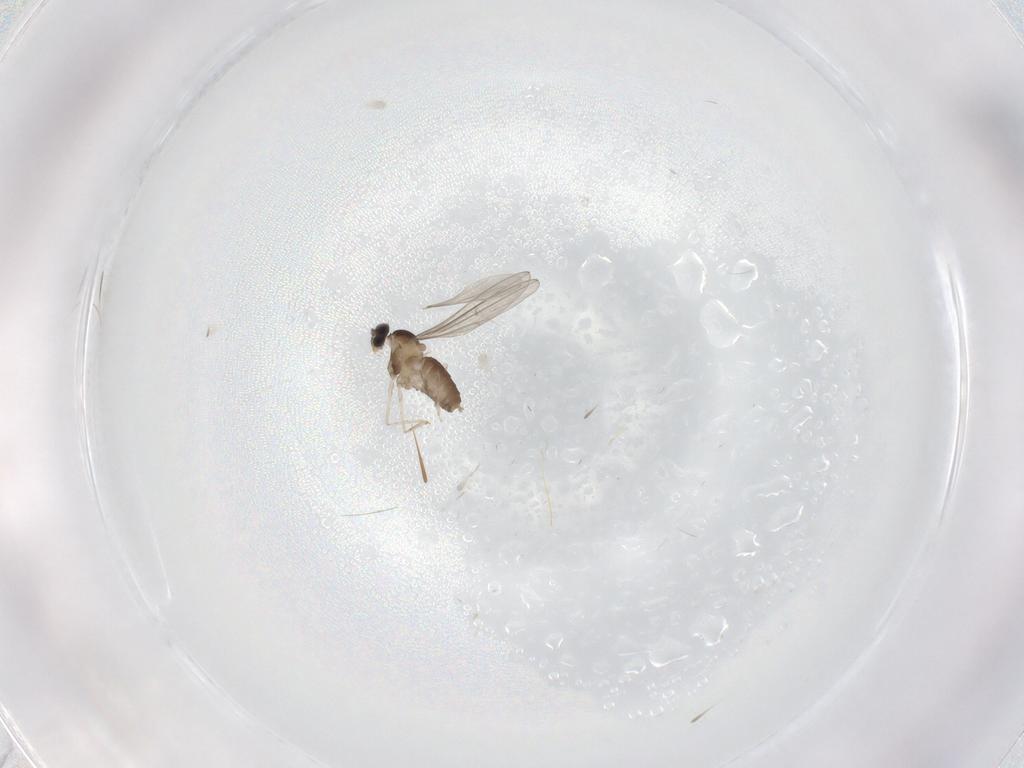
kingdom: Animalia
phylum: Arthropoda
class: Insecta
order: Diptera
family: Cecidomyiidae
